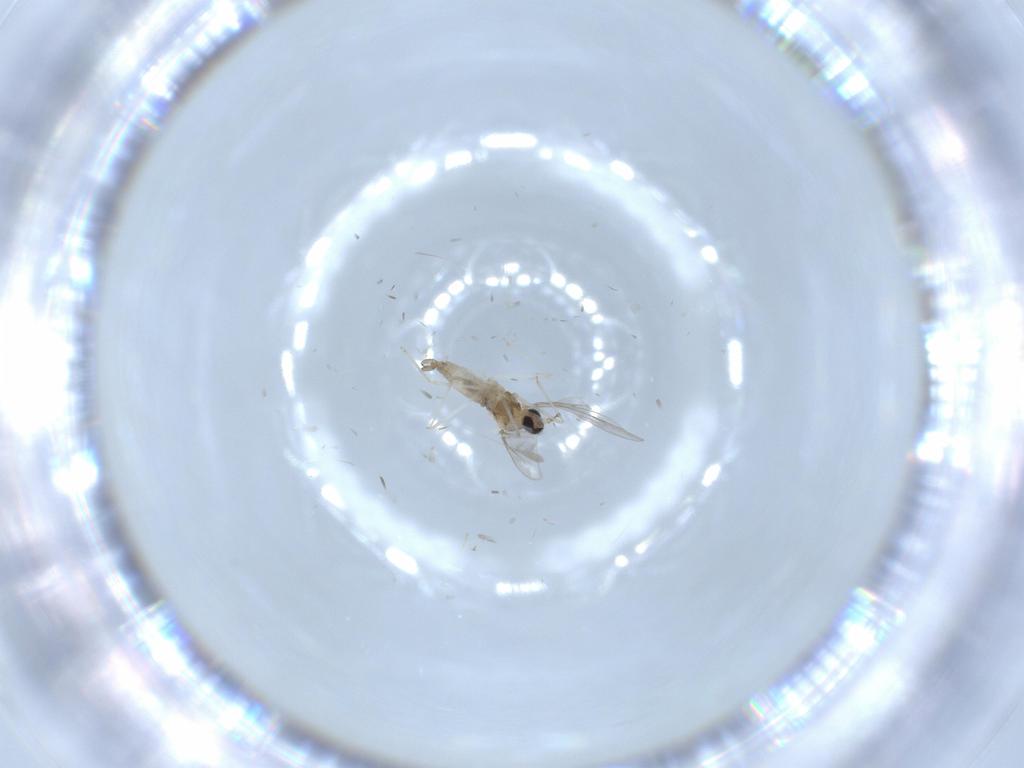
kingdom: Animalia
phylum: Arthropoda
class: Insecta
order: Diptera
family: Cecidomyiidae
